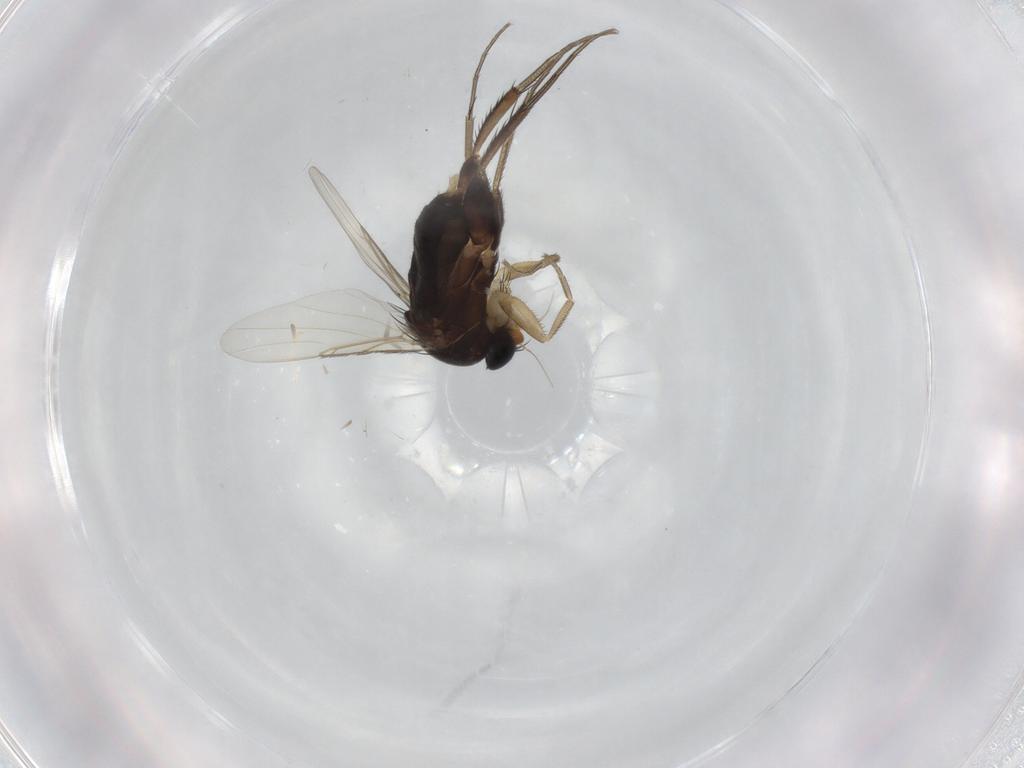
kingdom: Animalia
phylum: Arthropoda
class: Insecta
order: Diptera
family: Phoridae
